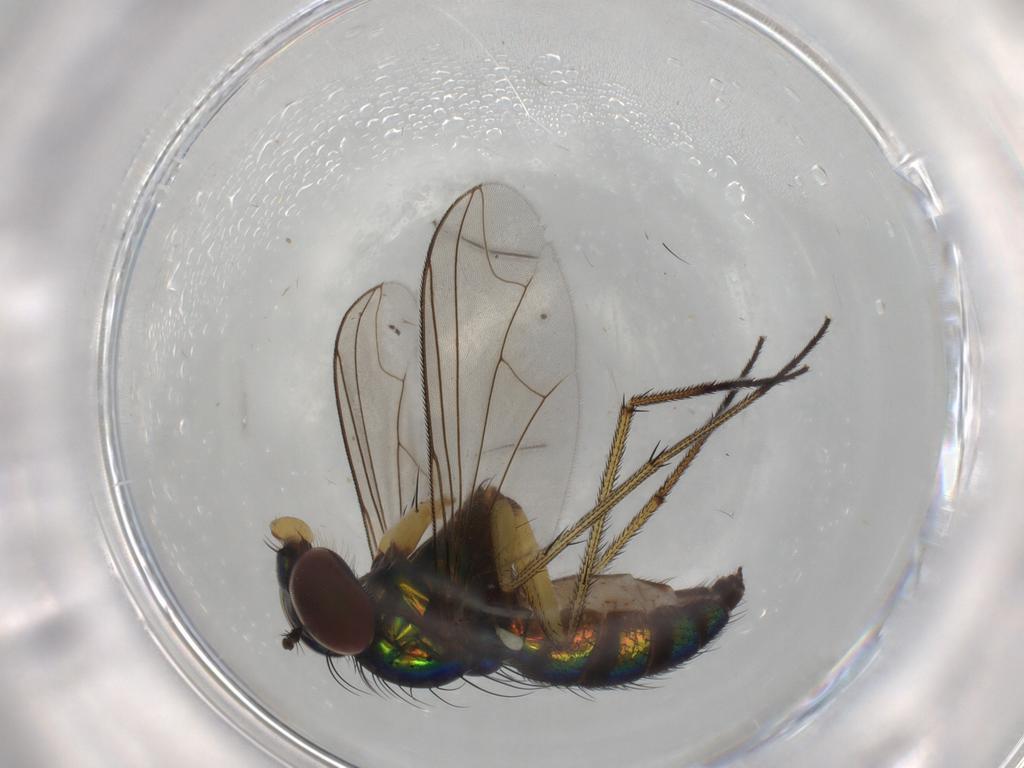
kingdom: Animalia
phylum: Arthropoda
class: Insecta
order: Diptera
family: Dolichopodidae
